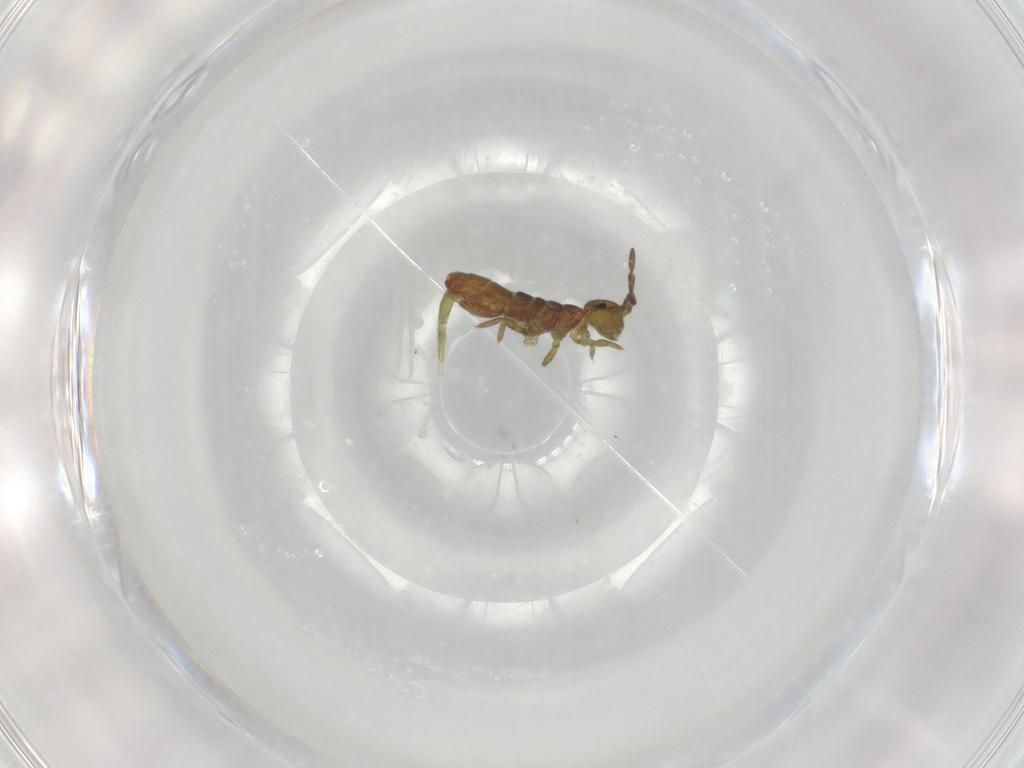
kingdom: Animalia
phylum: Arthropoda
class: Collembola
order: Entomobryomorpha
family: Isotomidae
